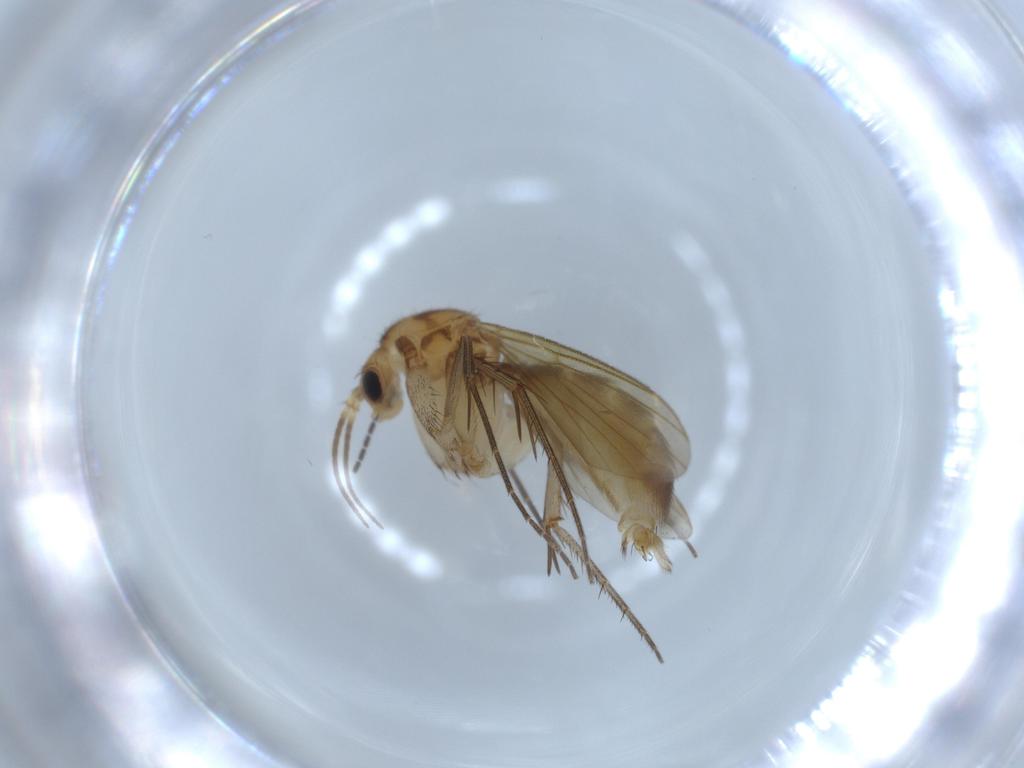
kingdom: Animalia
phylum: Arthropoda
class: Insecta
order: Diptera
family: Mycetophilidae
